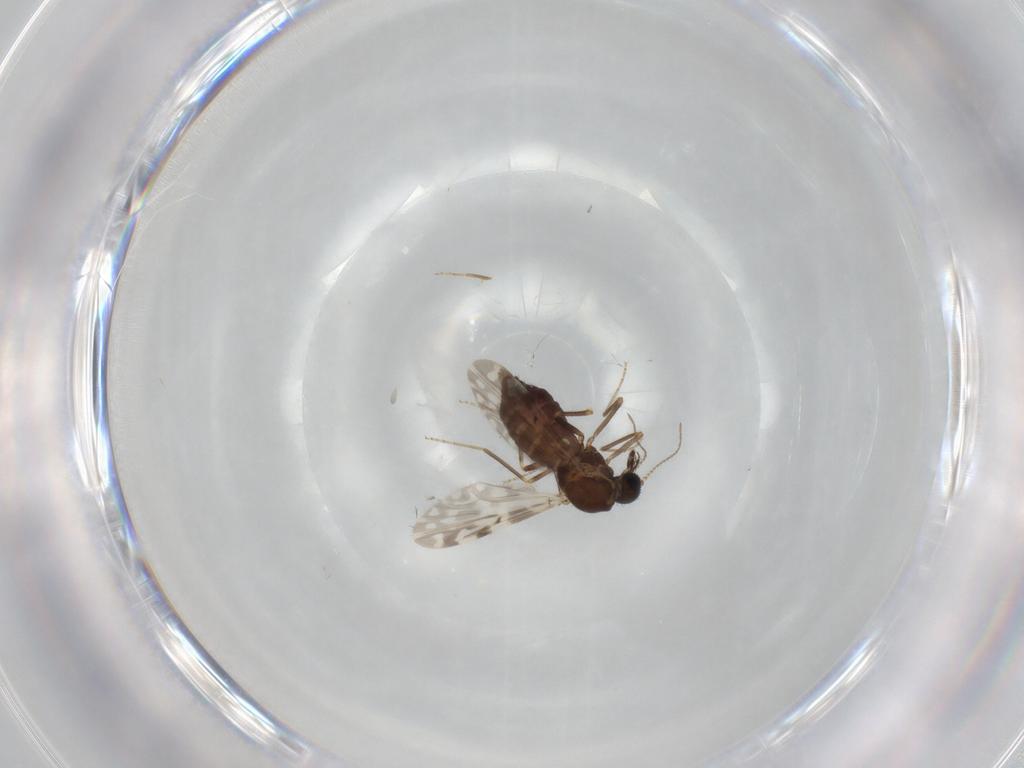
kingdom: Animalia
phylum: Arthropoda
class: Insecta
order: Diptera
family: Ceratopogonidae
